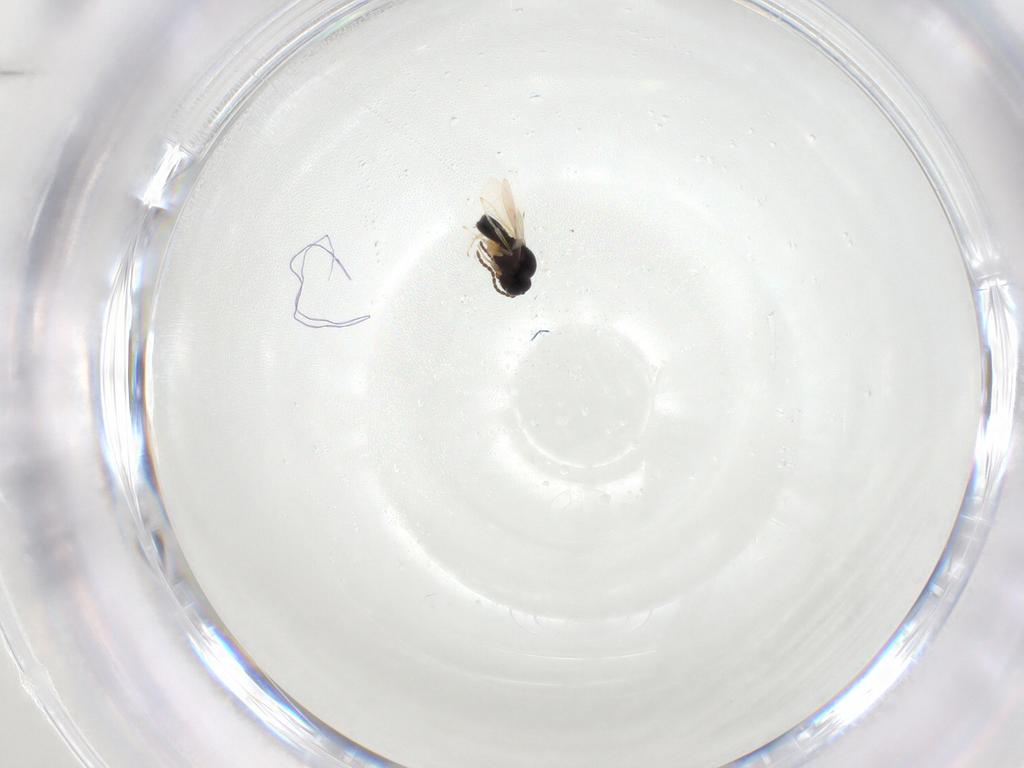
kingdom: Animalia
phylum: Arthropoda
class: Insecta
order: Hymenoptera
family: Scelionidae
